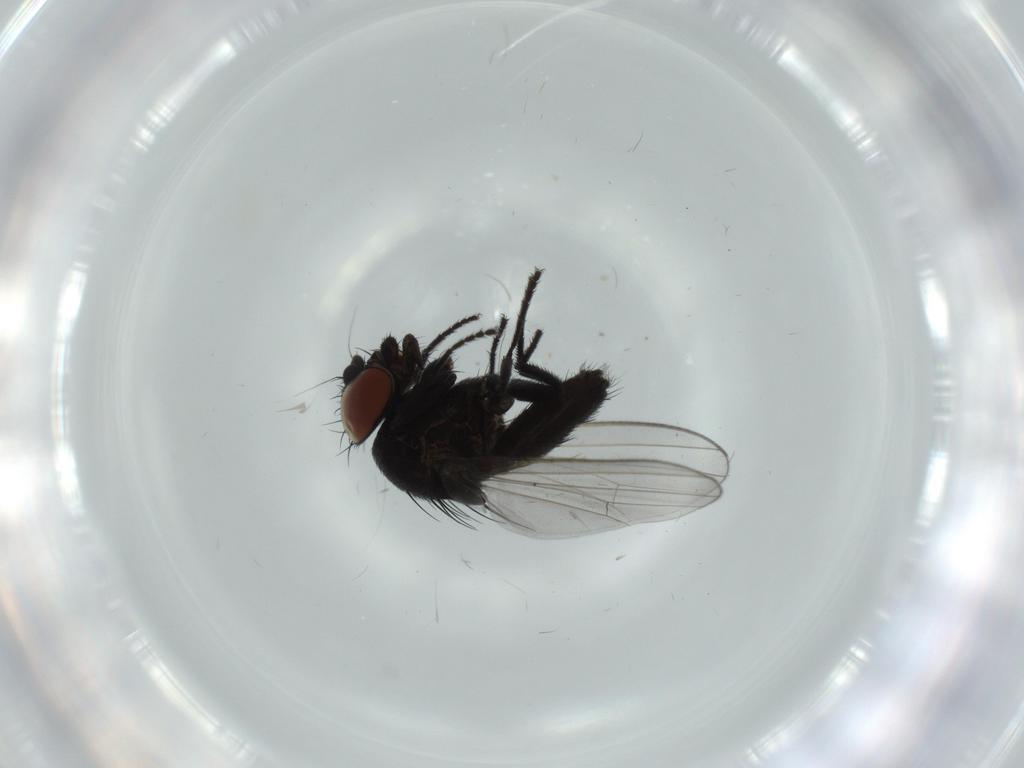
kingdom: Animalia
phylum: Arthropoda
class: Insecta
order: Diptera
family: Milichiidae
